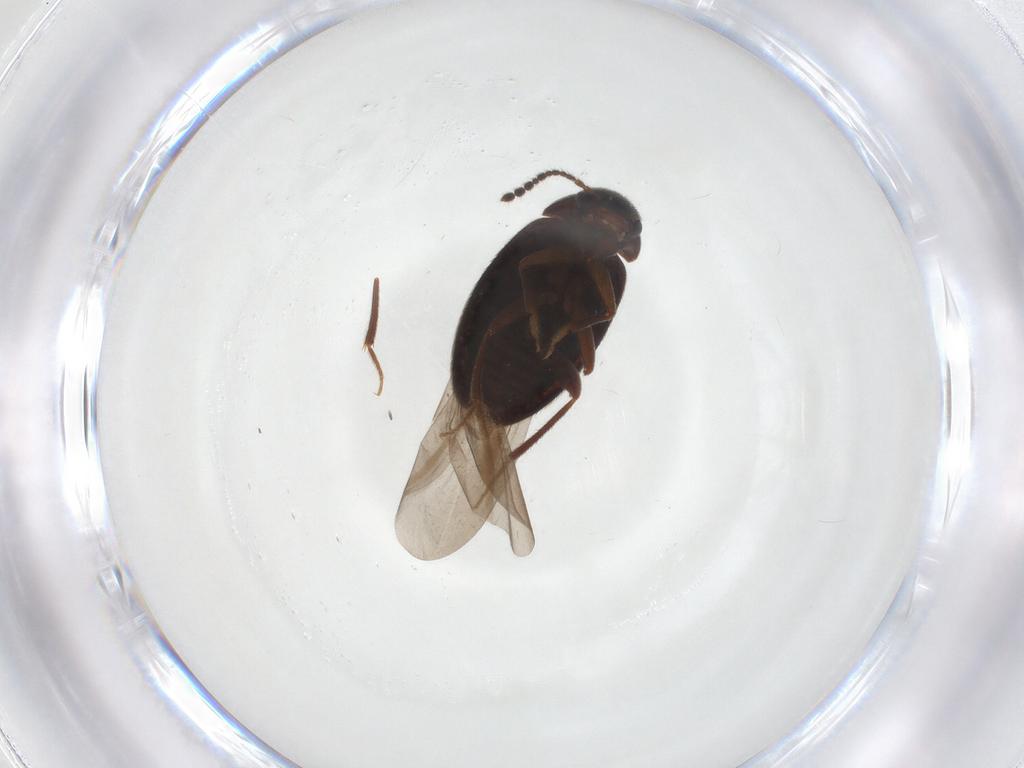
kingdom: Animalia
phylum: Arthropoda
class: Insecta
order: Coleoptera
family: Leiodidae
